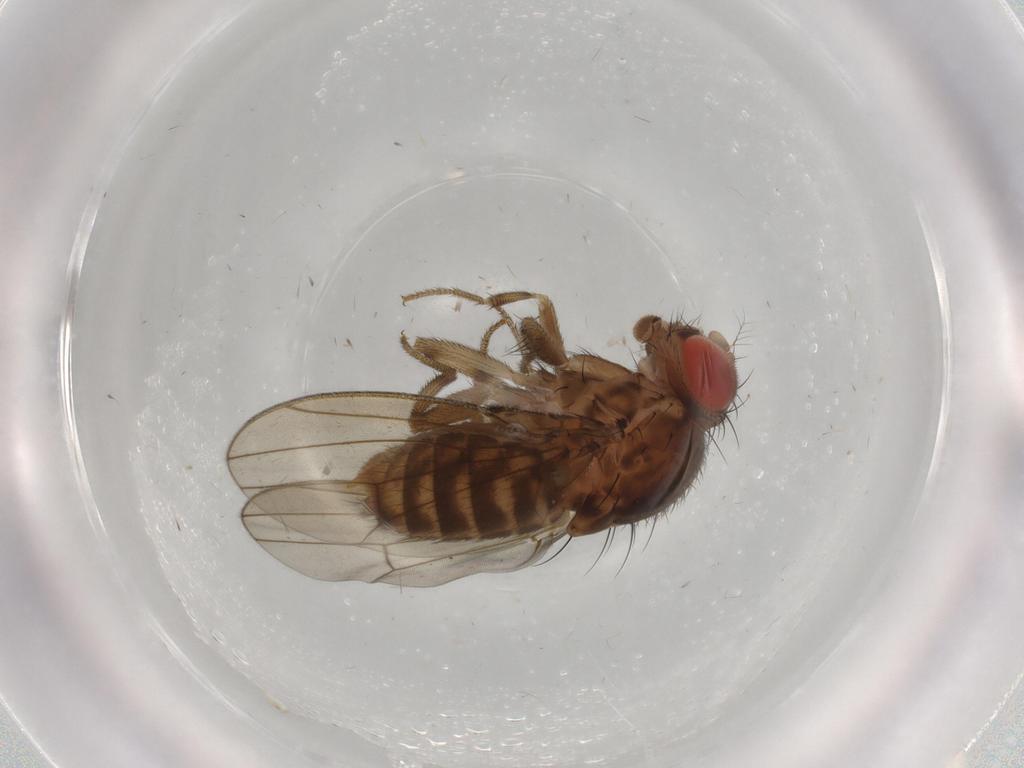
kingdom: Animalia
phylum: Arthropoda
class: Insecta
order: Diptera
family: Drosophilidae
